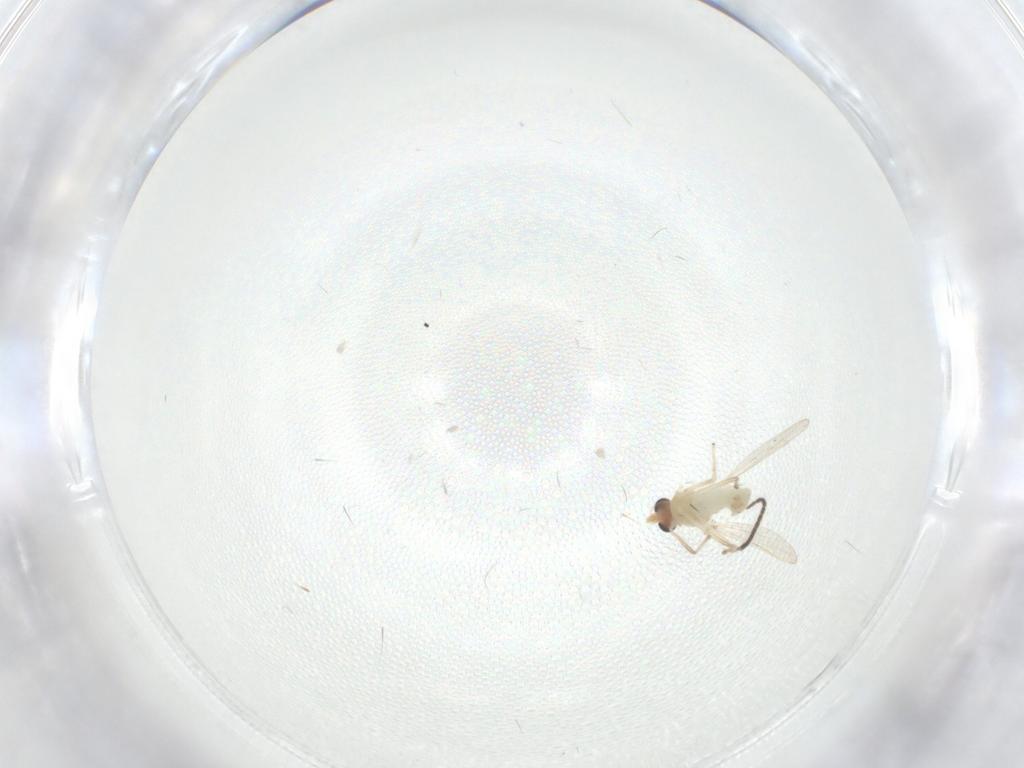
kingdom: Animalia
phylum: Arthropoda
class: Insecta
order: Diptera
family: Chironomidae
